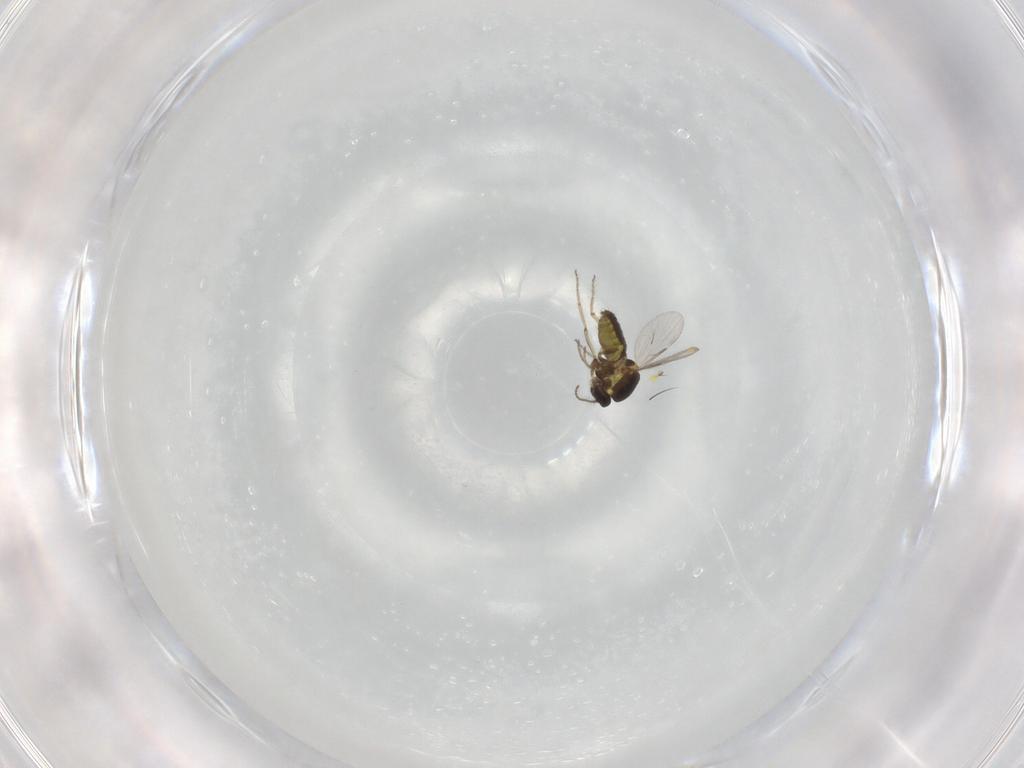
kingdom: Animalia
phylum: Arthropoda
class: Insecta
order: Diptera
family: Ceratopogonidae
